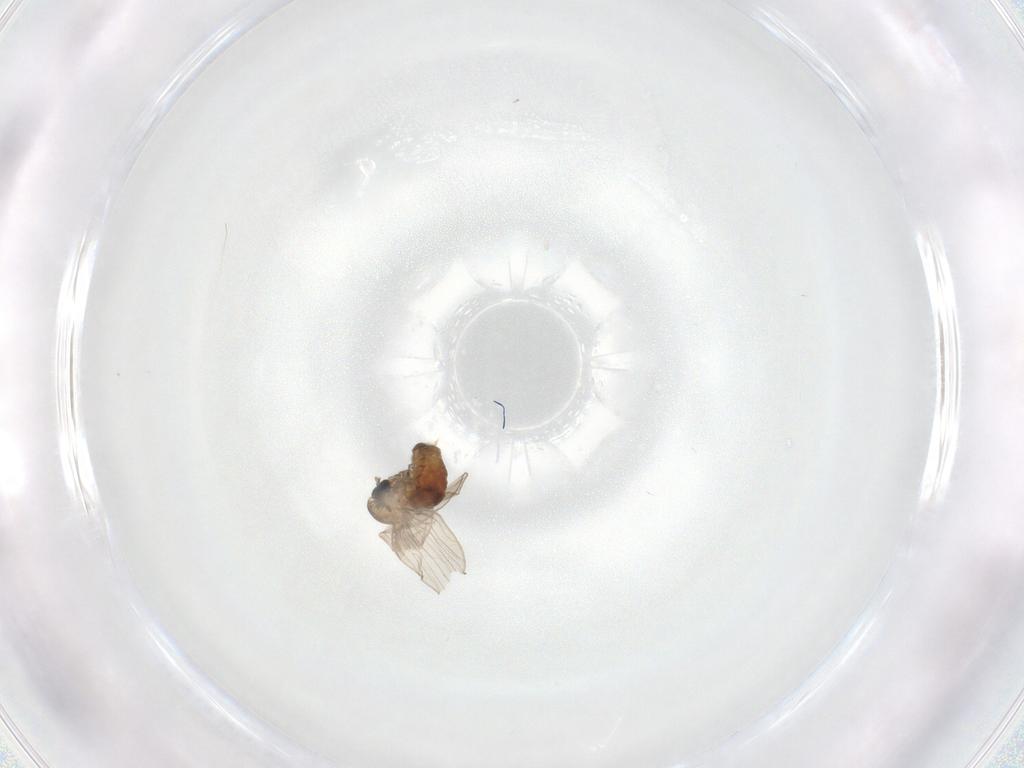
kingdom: Animalia
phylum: Arthropoda
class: Insecta
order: Diptera
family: Psychodidae
